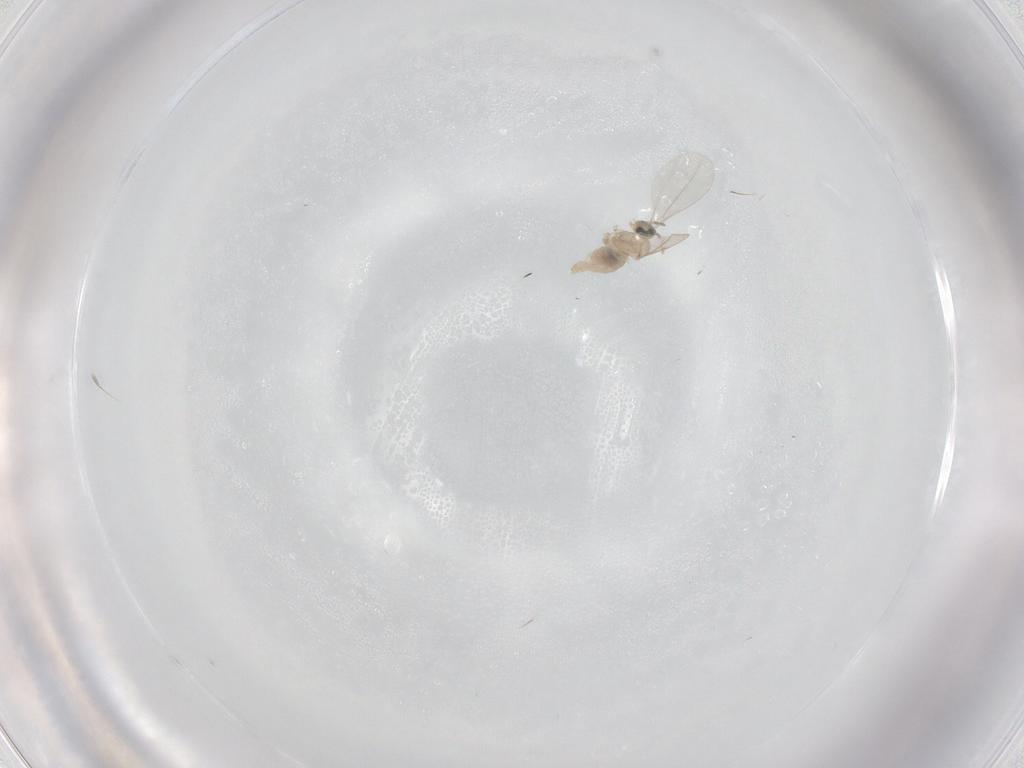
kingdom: Animalia
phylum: Arthropoda
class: Insecta
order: Diptera
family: Cecidomyiidae
